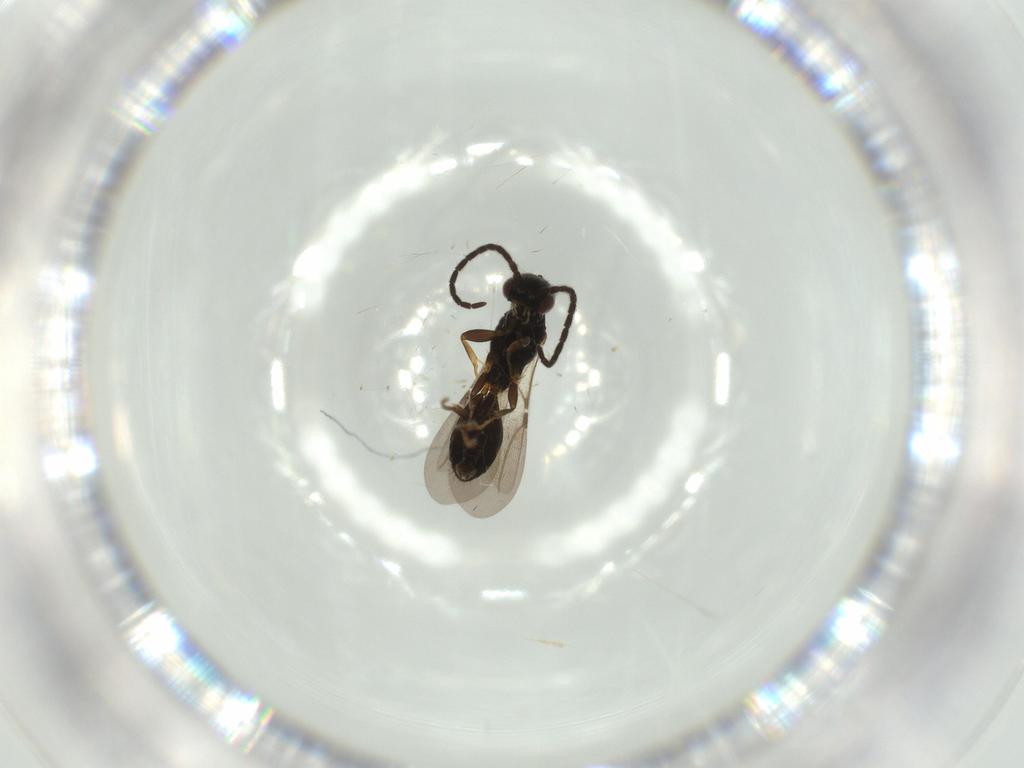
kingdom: Animalia
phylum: Arthropoda
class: Insecta
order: Hymenoptera
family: Bethylidae
